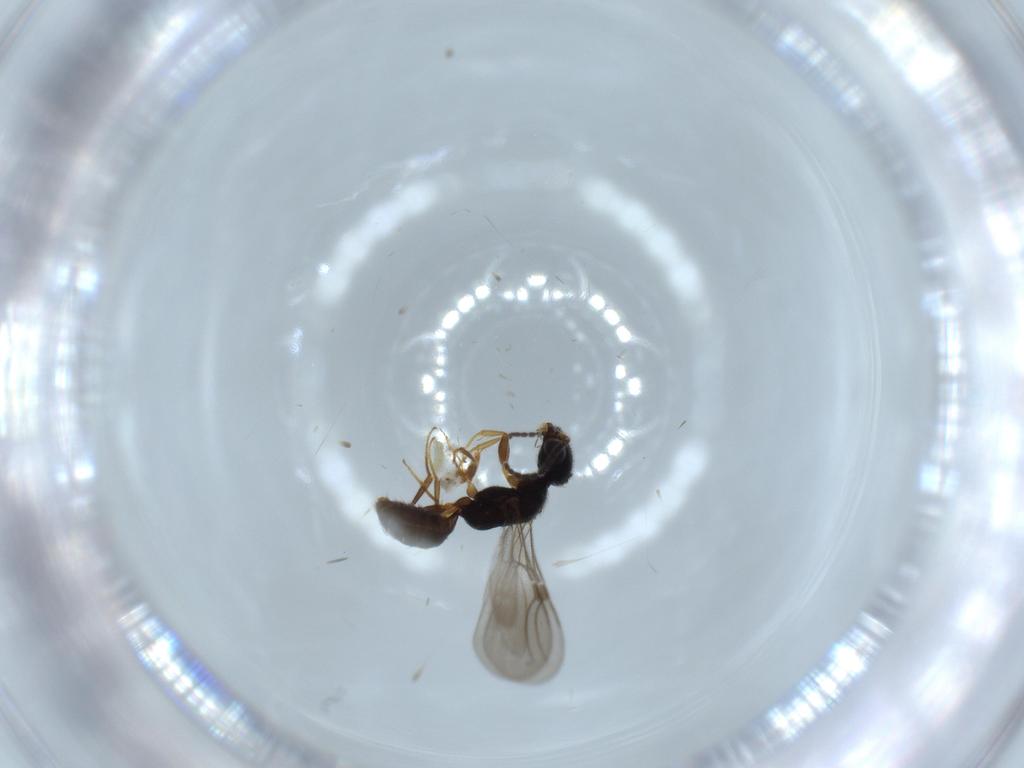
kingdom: Animalia
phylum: Arthropoda
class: Insecta
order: Hymenoptera
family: Formicidae
